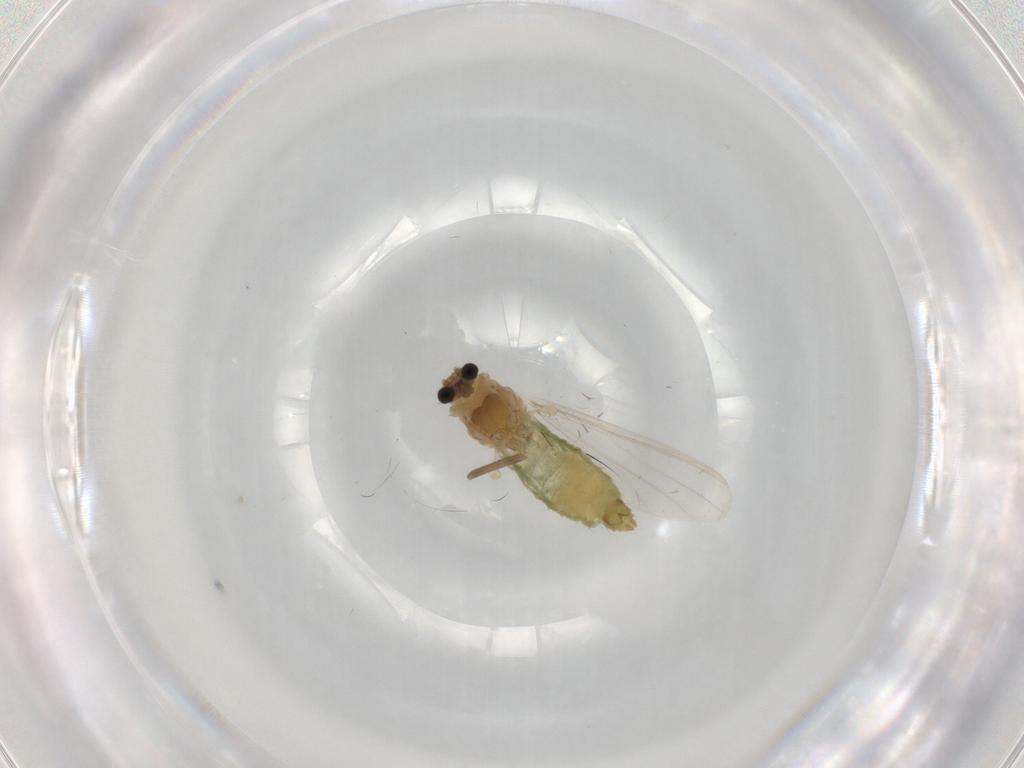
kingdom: Animalia
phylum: Arthropoda
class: Insecta
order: Diptera
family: Chironomidae
